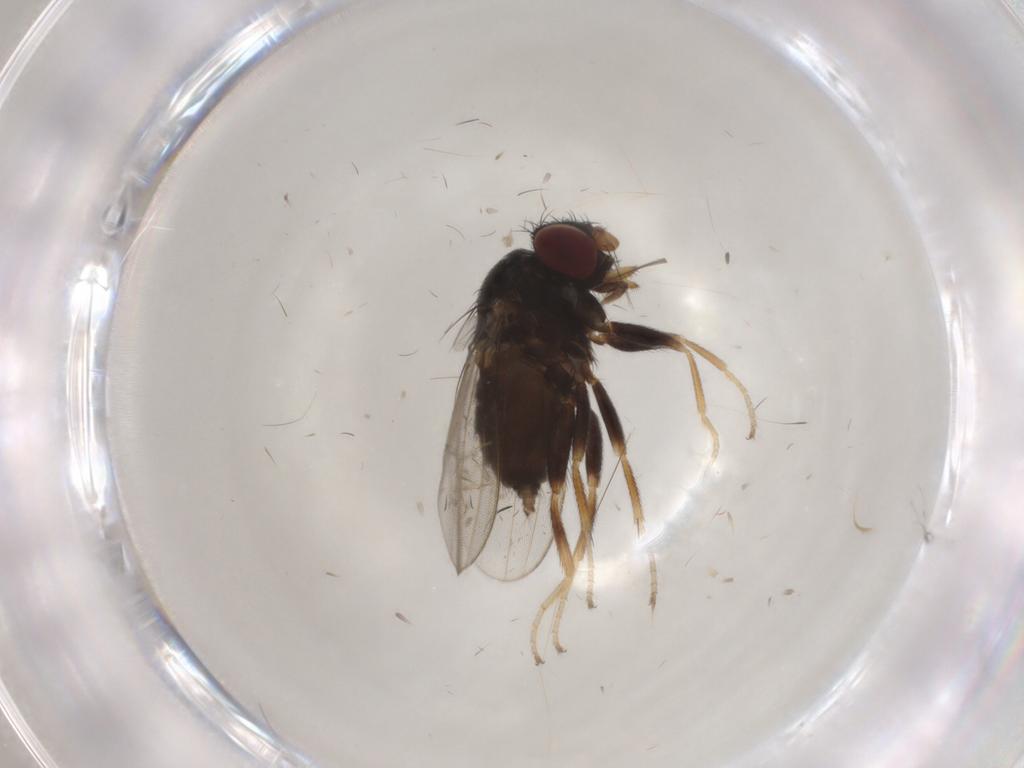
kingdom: Animalia
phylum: Arthropoda
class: Insecta
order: Diptera
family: Milichiidae
